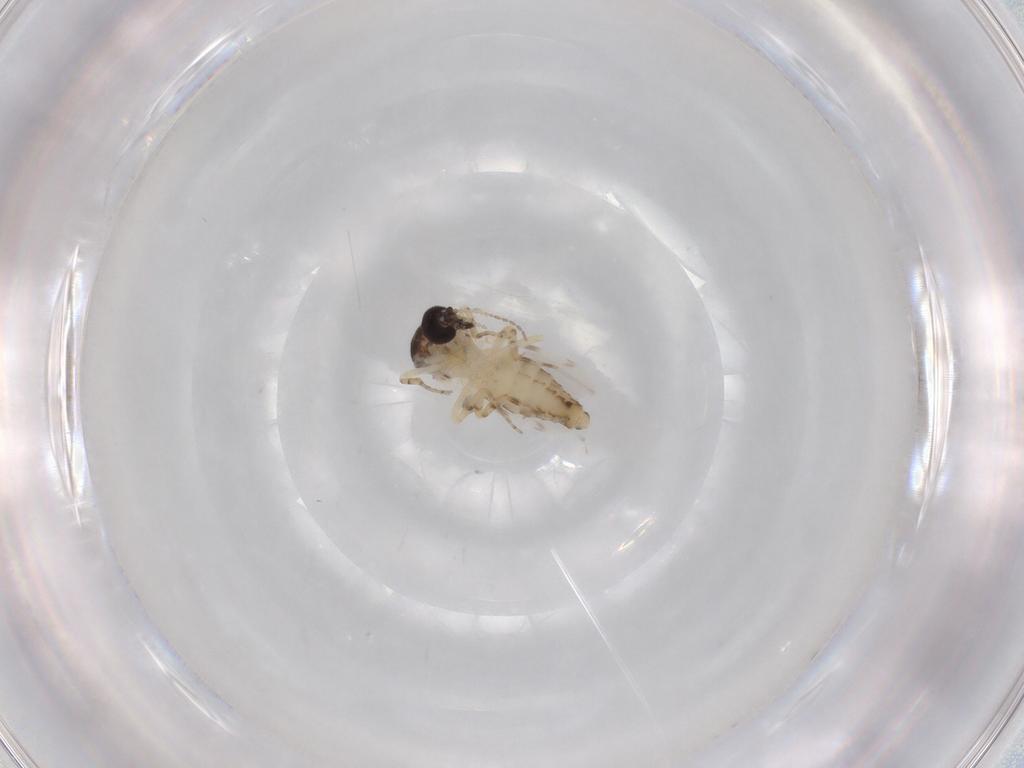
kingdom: Animalia
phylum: Arthropoda
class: Insecta
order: Diptera
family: Ceratopogonidae
